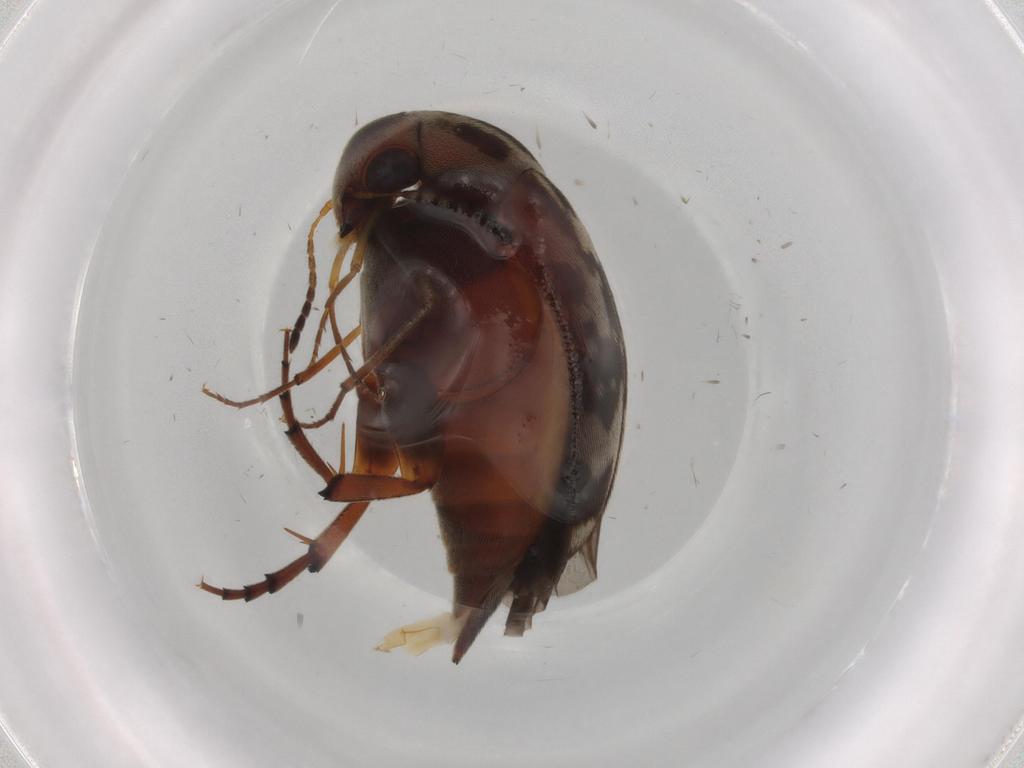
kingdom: Animalia
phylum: Arthropoda
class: Insecta
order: Coleoptera
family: Mordellidae
